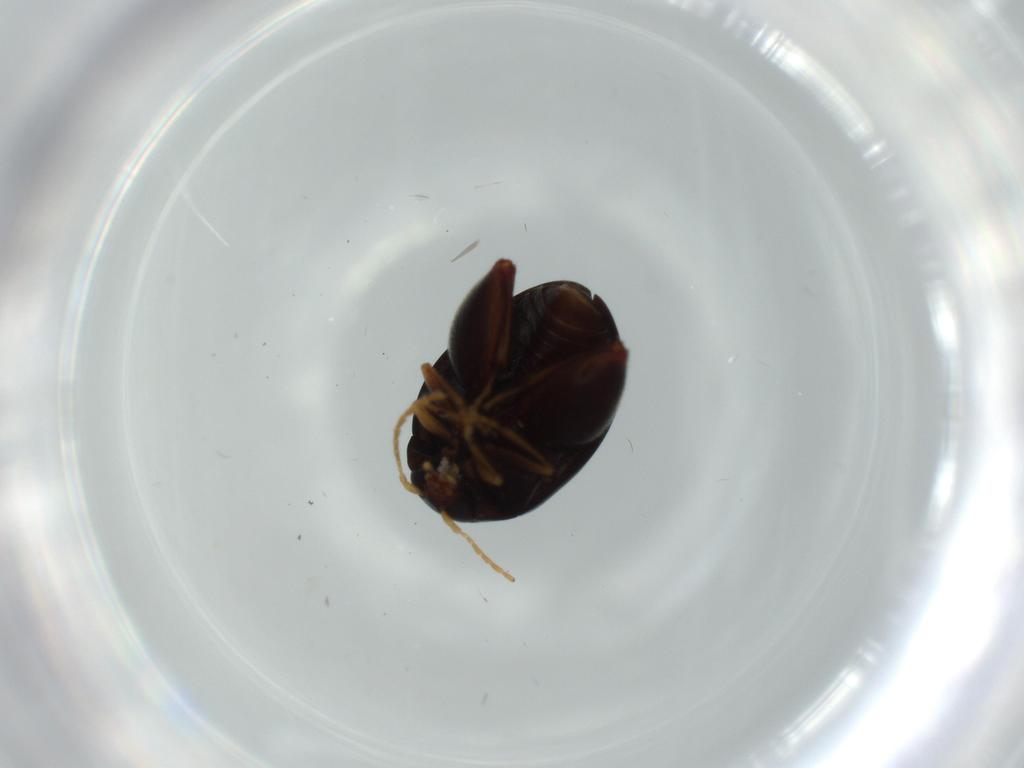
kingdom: Animalia
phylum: Arthropoda
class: Insecta
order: Coleoptera
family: Chrysomelidae
